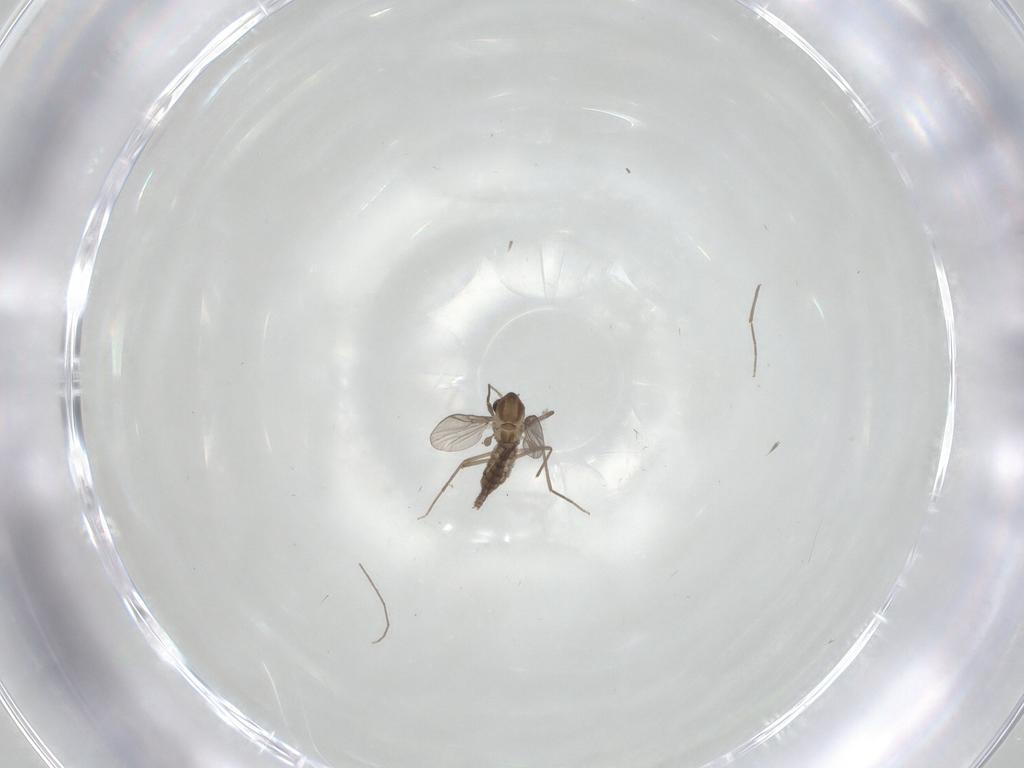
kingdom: Animalia
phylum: Arthropoda
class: Insecta
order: Diptera
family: Chironomidae
